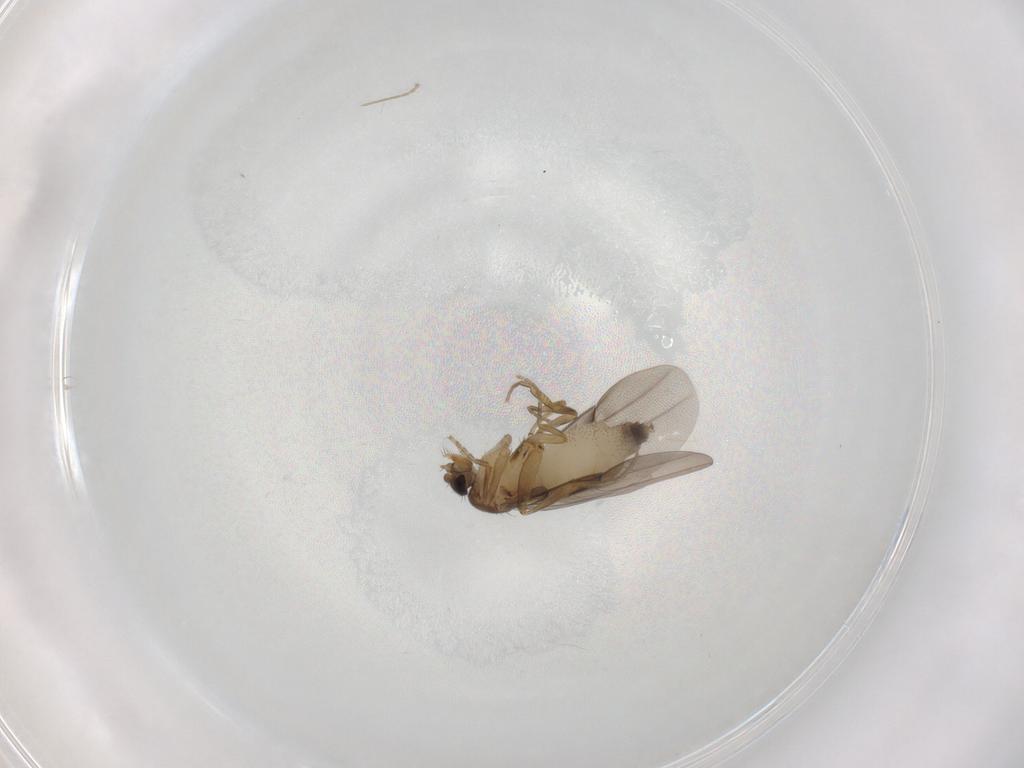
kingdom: Animalia
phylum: Arthropoda
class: Insecta
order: Diptera
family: Phoridae
